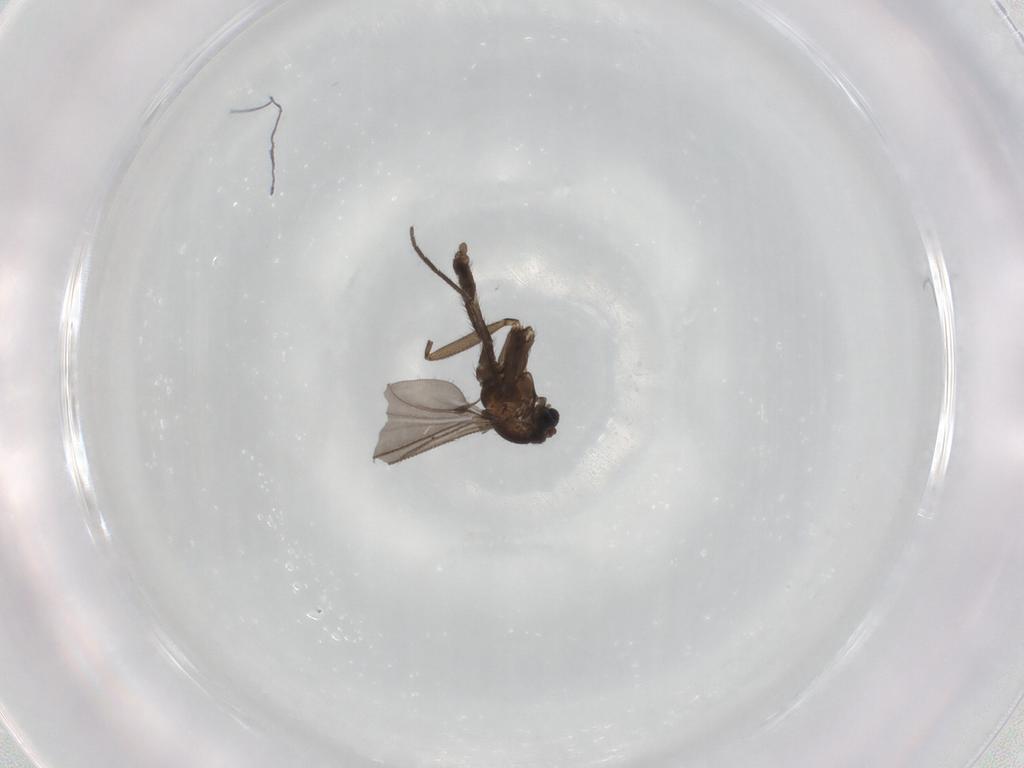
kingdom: Animalia
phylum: Arthropoda
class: Insecta
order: Diptera
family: Sciaridae
